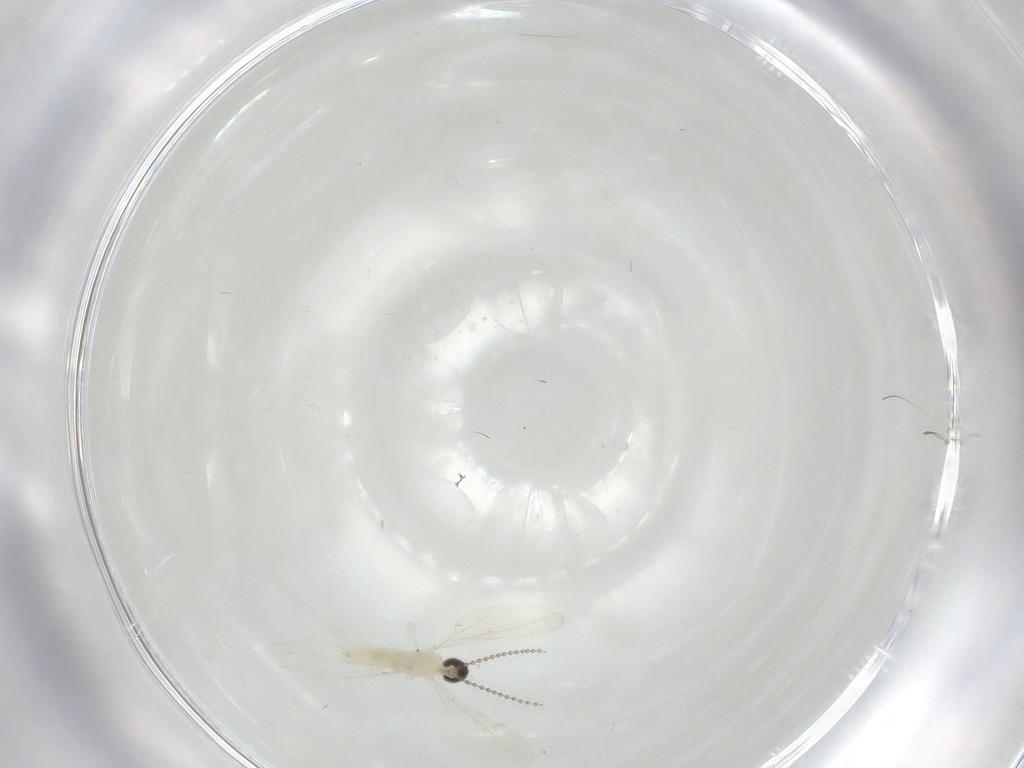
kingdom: Animalia
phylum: Arthropoda
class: Insecta
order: Diptera
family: Cecidomyiidae
